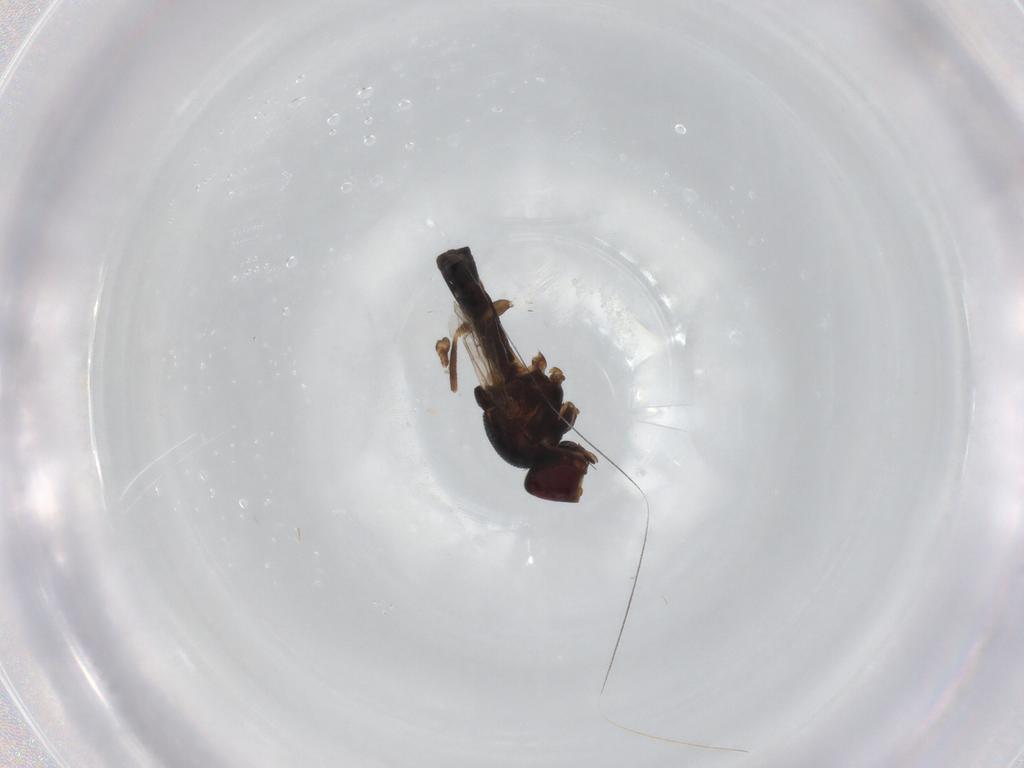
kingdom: Animalia
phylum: Arthropoda
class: Insecta
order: Diptera
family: Chloropidae
